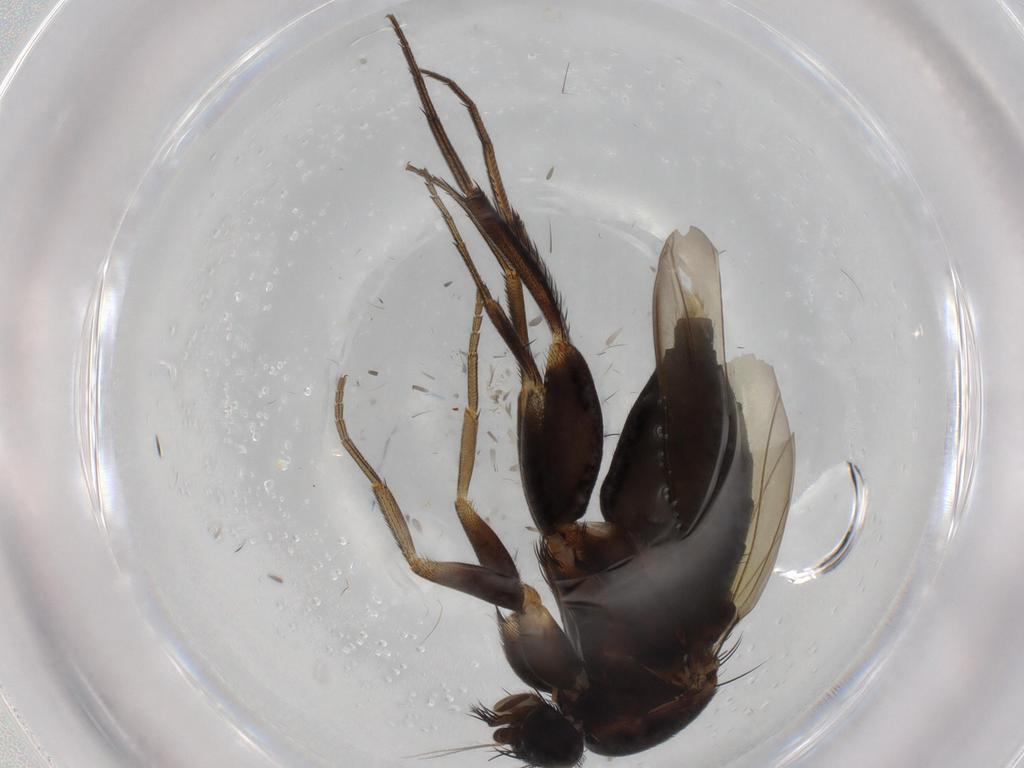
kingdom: Animalia
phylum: Arthropoda
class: Insecta
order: Diptera
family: Phoridae
